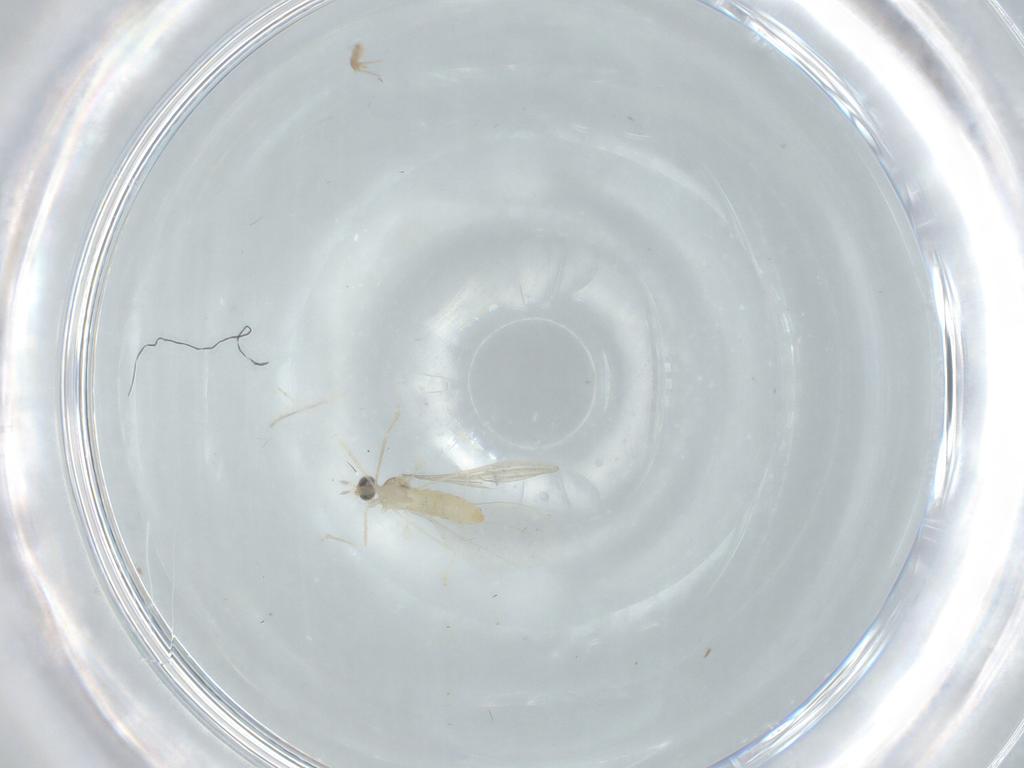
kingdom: Animalia
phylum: Arthropoda
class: Insecta
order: Diptera
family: Cecidomyiidae
